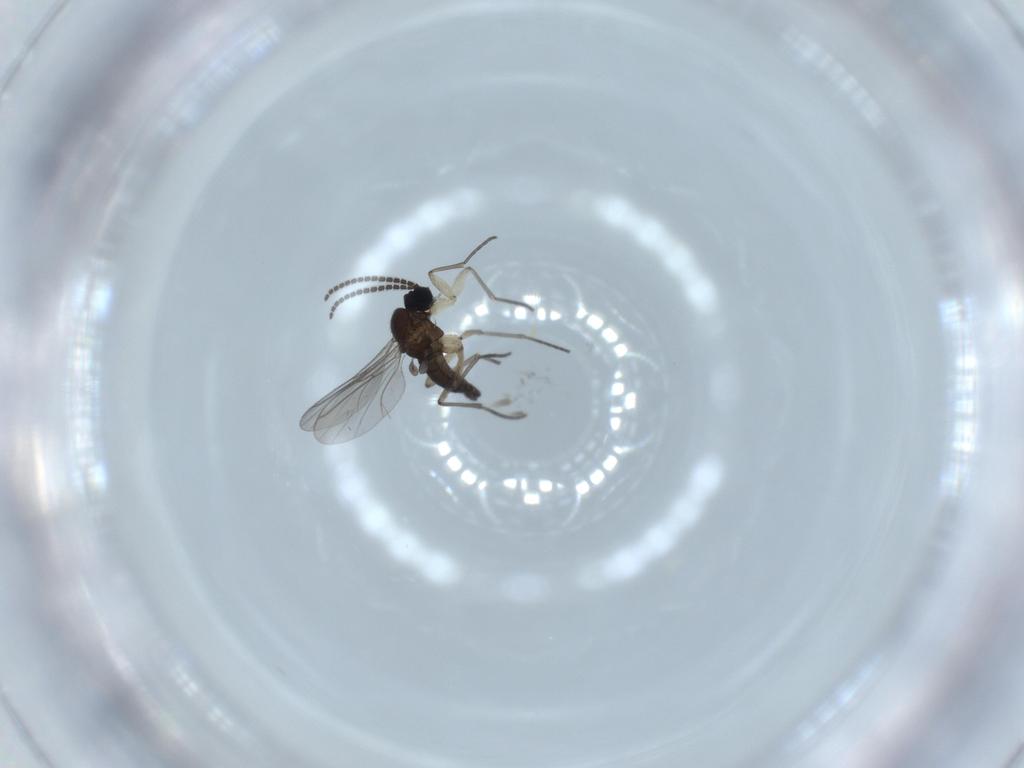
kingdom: Animalia
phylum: Arthropoda
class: Insecta
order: Diptera
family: Sciaridae
